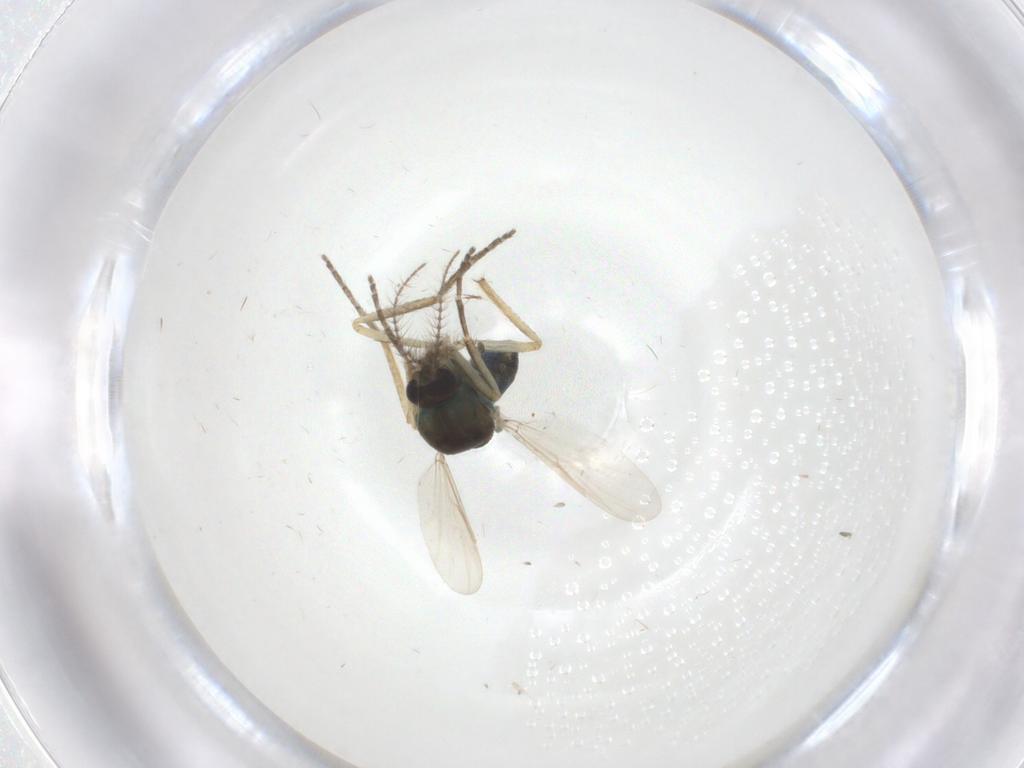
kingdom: Animalia
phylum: Arthropoda
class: Insecta
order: Diptera
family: Ceratopogonidae
